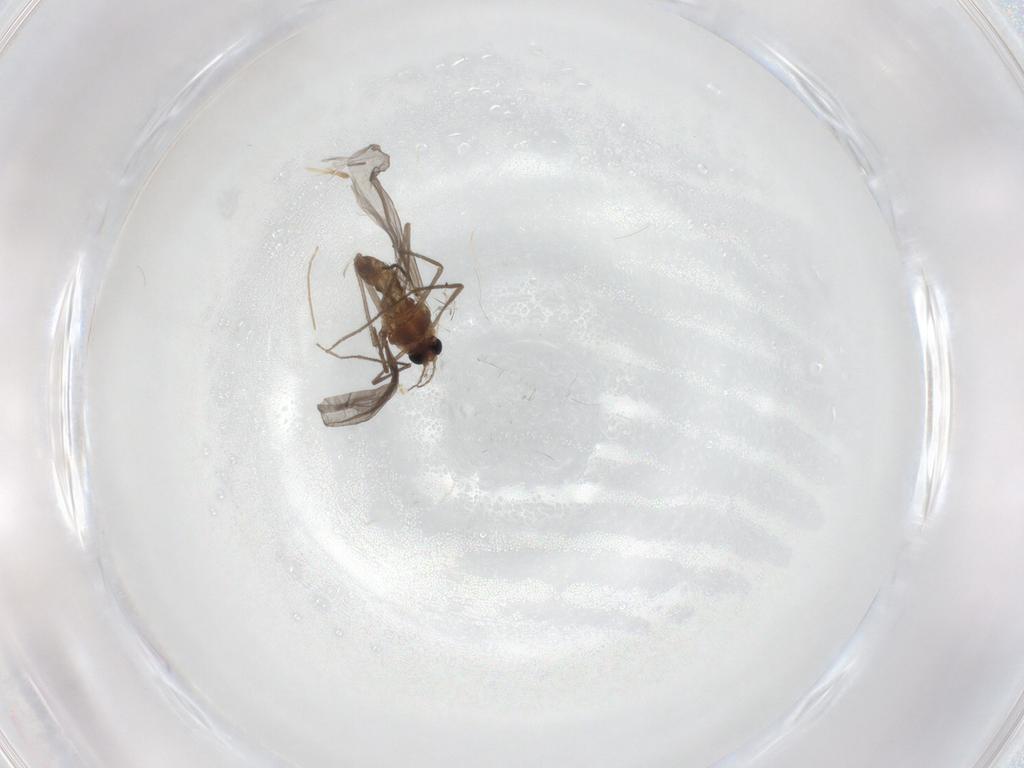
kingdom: Animalia
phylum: Arthropoda
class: Insecta
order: Diptera
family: Chironomidae
